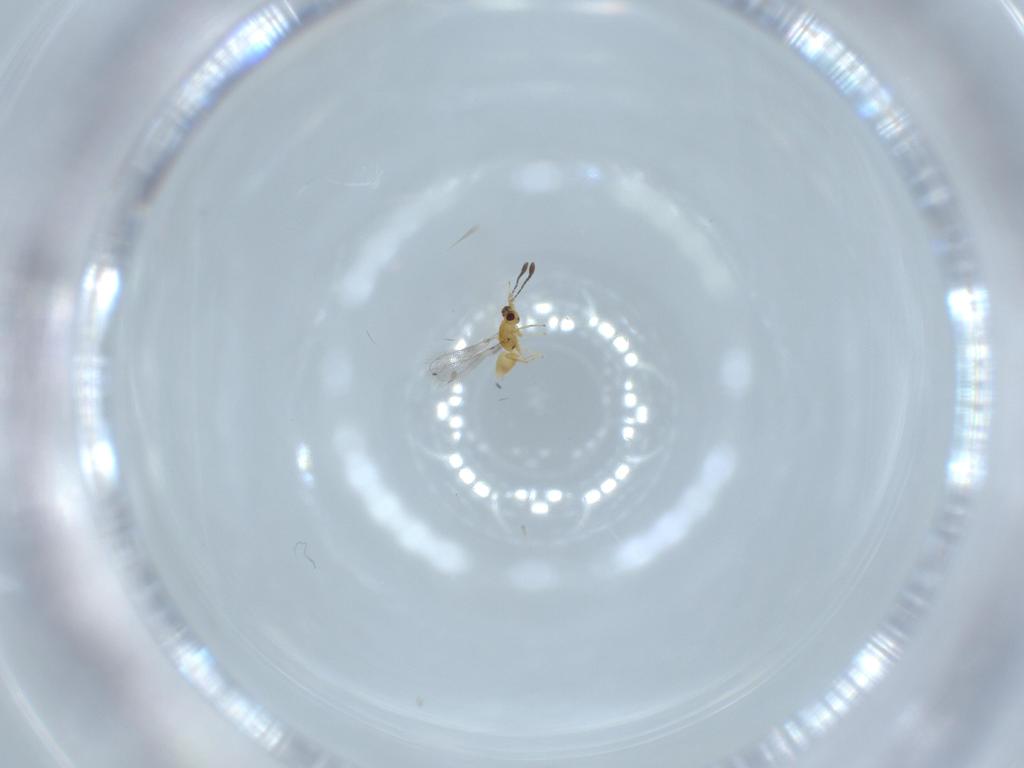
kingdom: Animalia
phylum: Arthropoda
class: Insecta
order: Hymenoptera
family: Mymaridae
